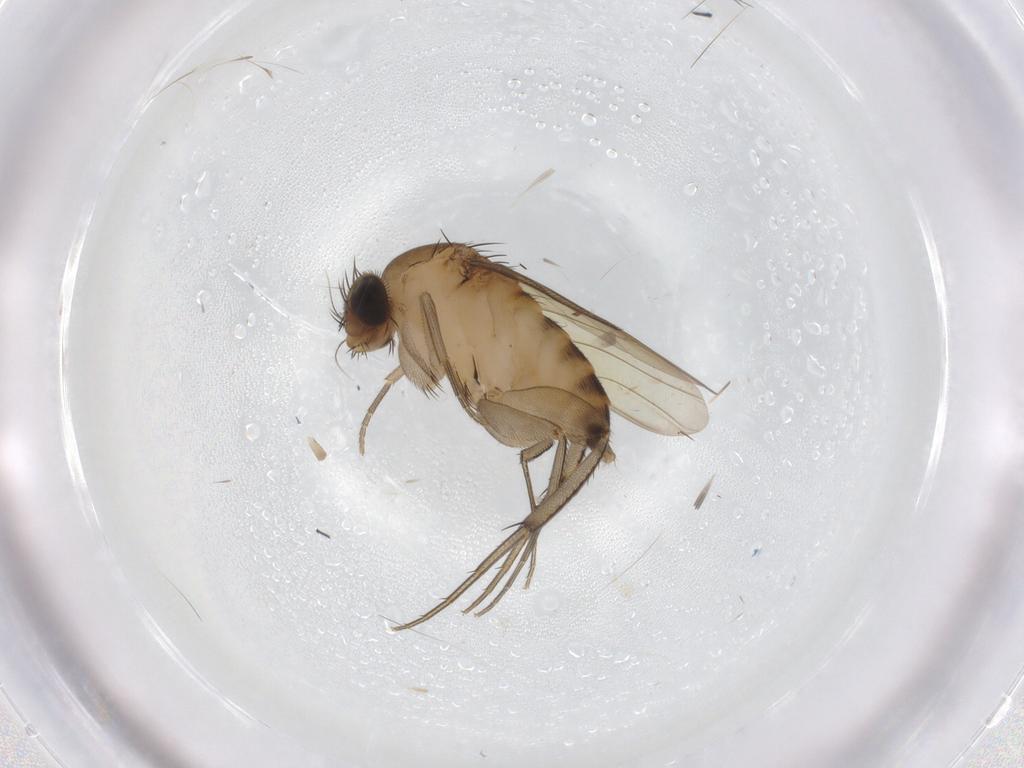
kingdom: Animalia
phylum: Arthropoda
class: Insecta
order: Diptera
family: Phoridae
